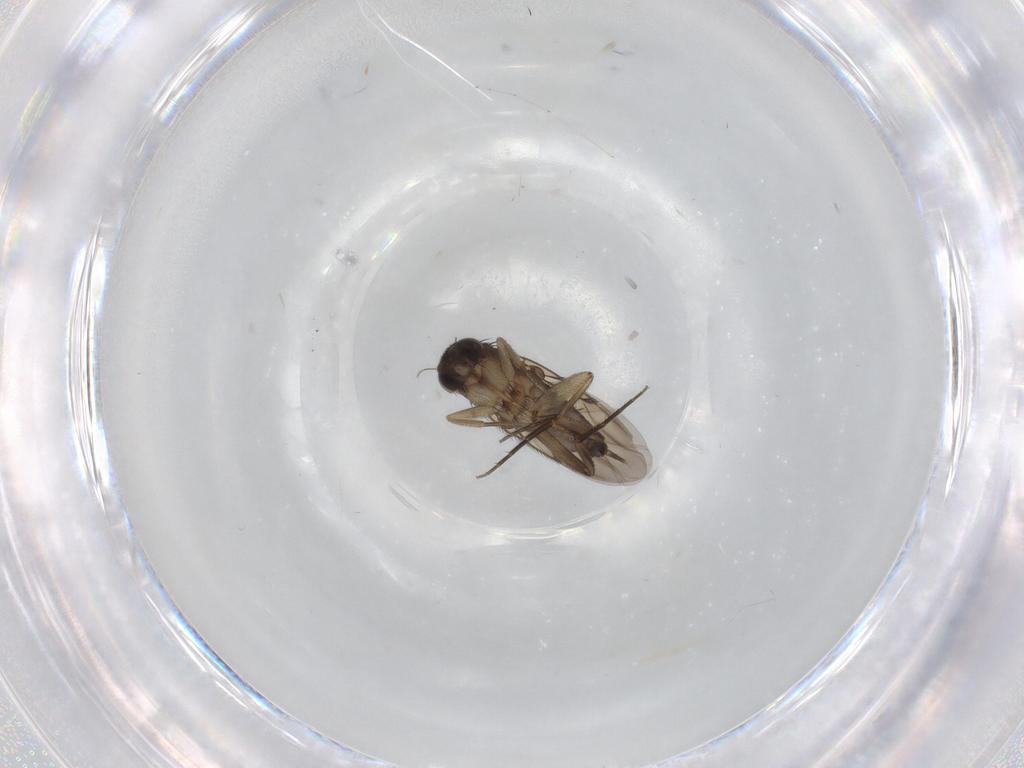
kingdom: Animalia
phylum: Arthropoda
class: Insecta
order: Diptera
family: Phoridae
